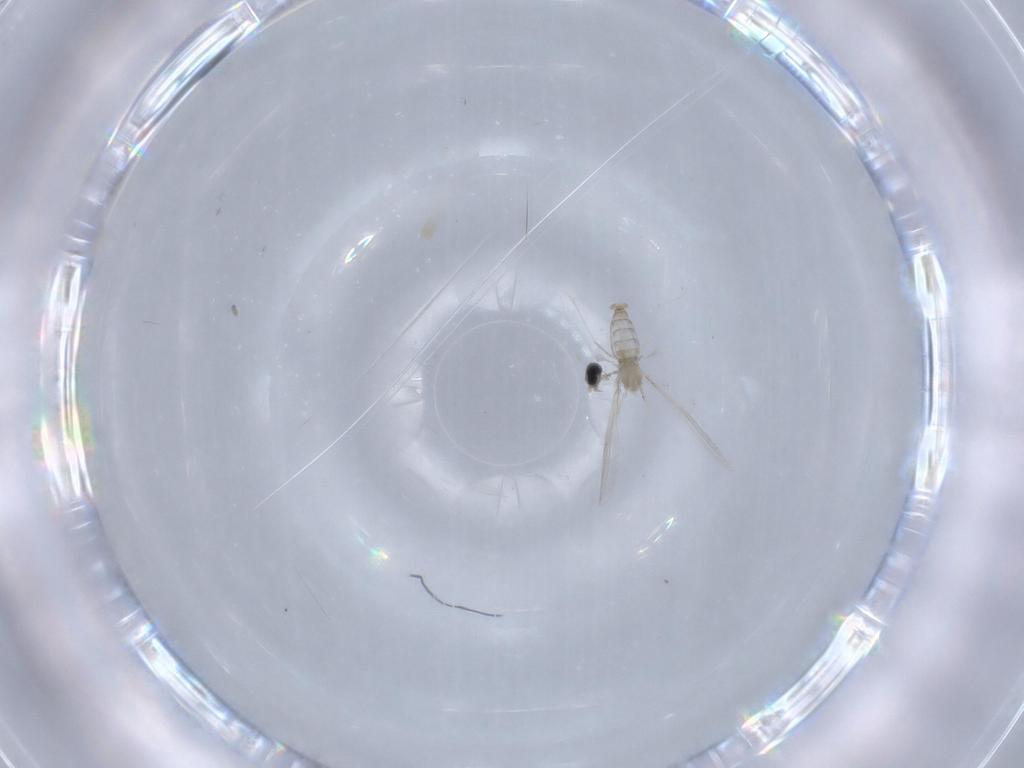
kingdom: Animalia
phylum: Arthropoda
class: Insecta
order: Diptera
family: Cecidomyiidae
